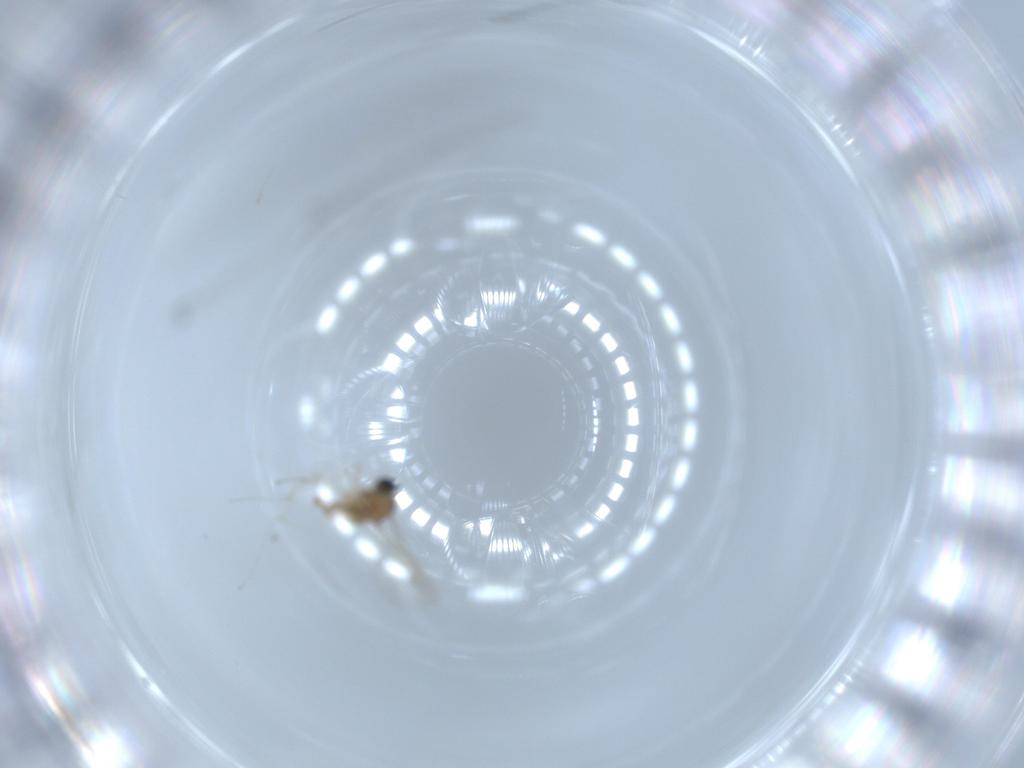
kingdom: Animalia
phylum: Arthropoda
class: Insecta
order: Diptera
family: Cecidomyiidae
